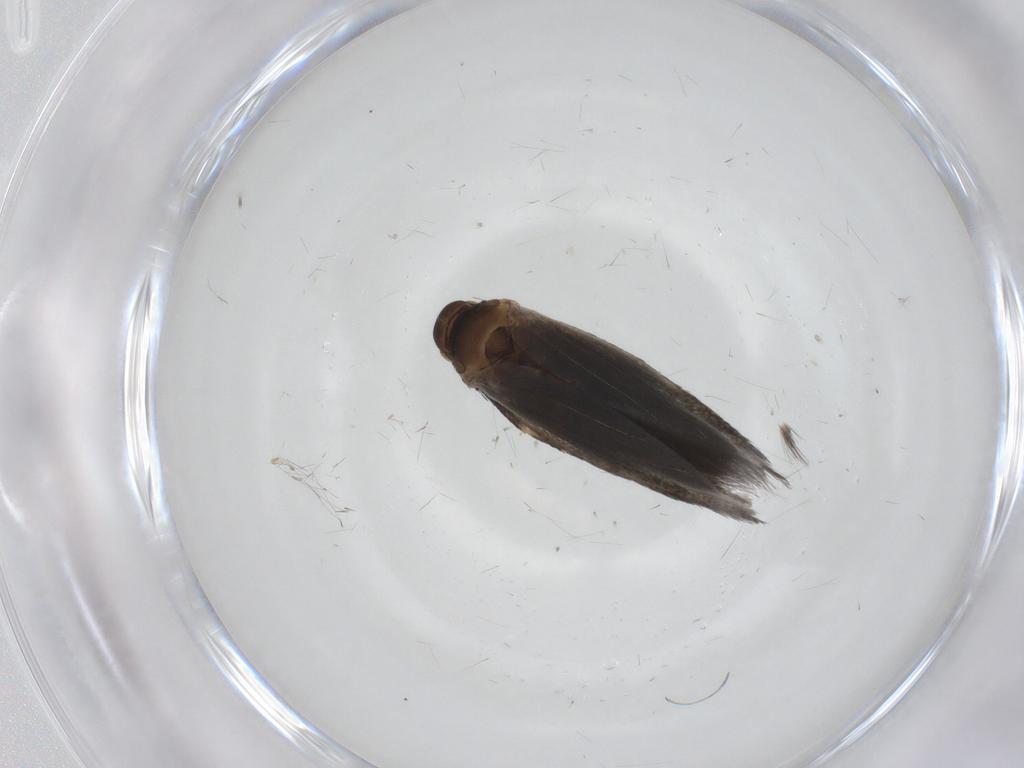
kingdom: Animalia
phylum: Arthropoda
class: Insecta
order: Lepidoptera
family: Elachistidae
